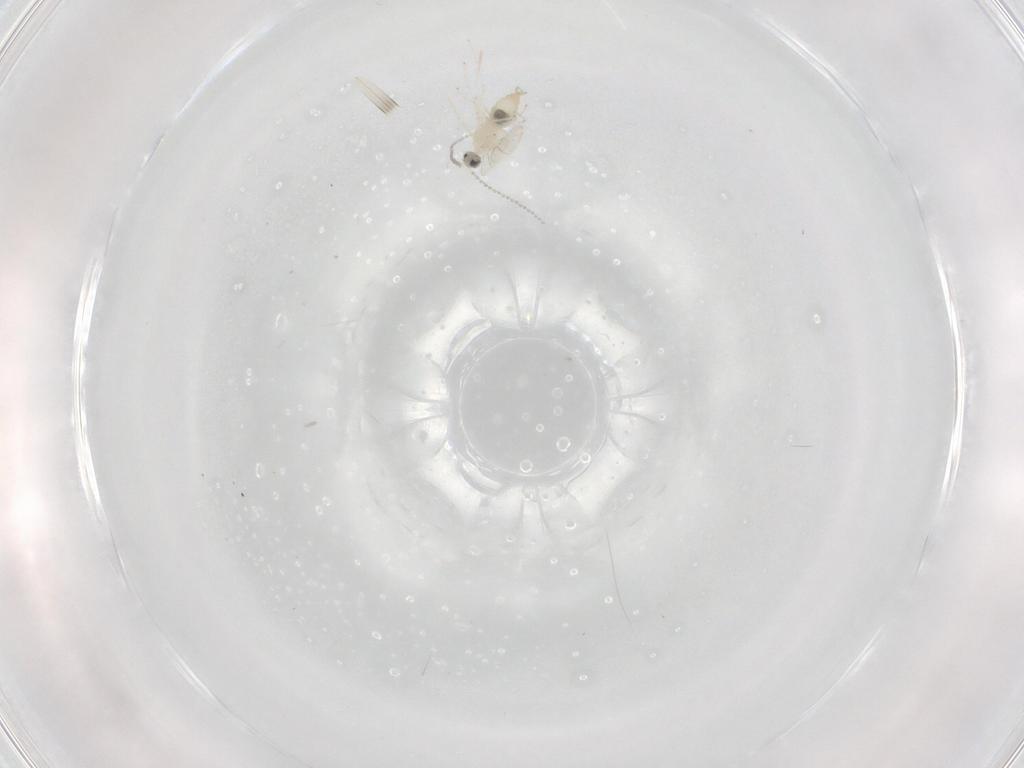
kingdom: Animalia
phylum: Arthropoda
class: Insecta
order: Diptera
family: Cecidomyiidae
